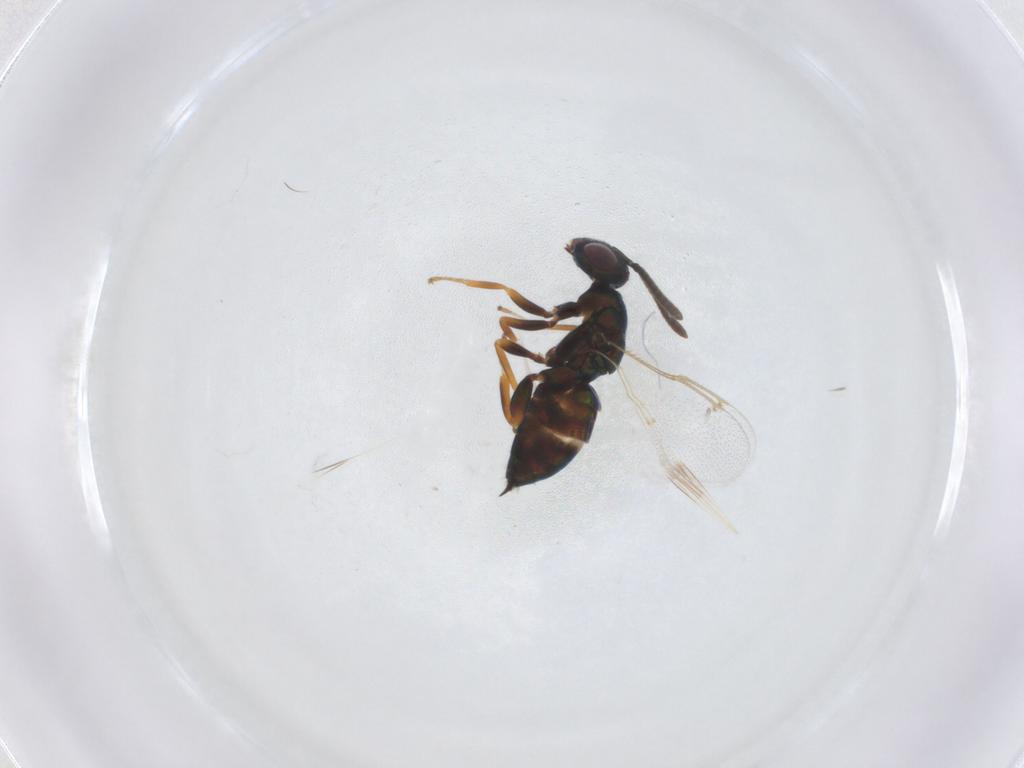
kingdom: Animalia
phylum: Arthropoda
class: Insecta
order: Hymenoptera
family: Torymidae
